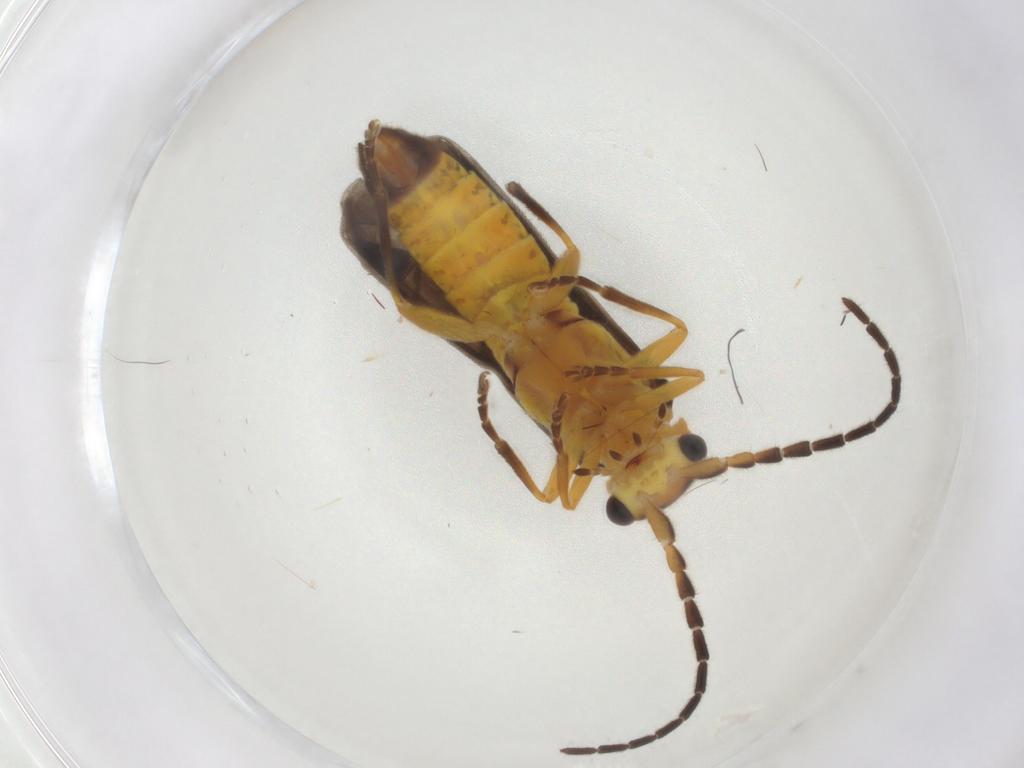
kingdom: Animalia
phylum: Arthropoda
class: Insecta
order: Coleoptera
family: Cantharidae
